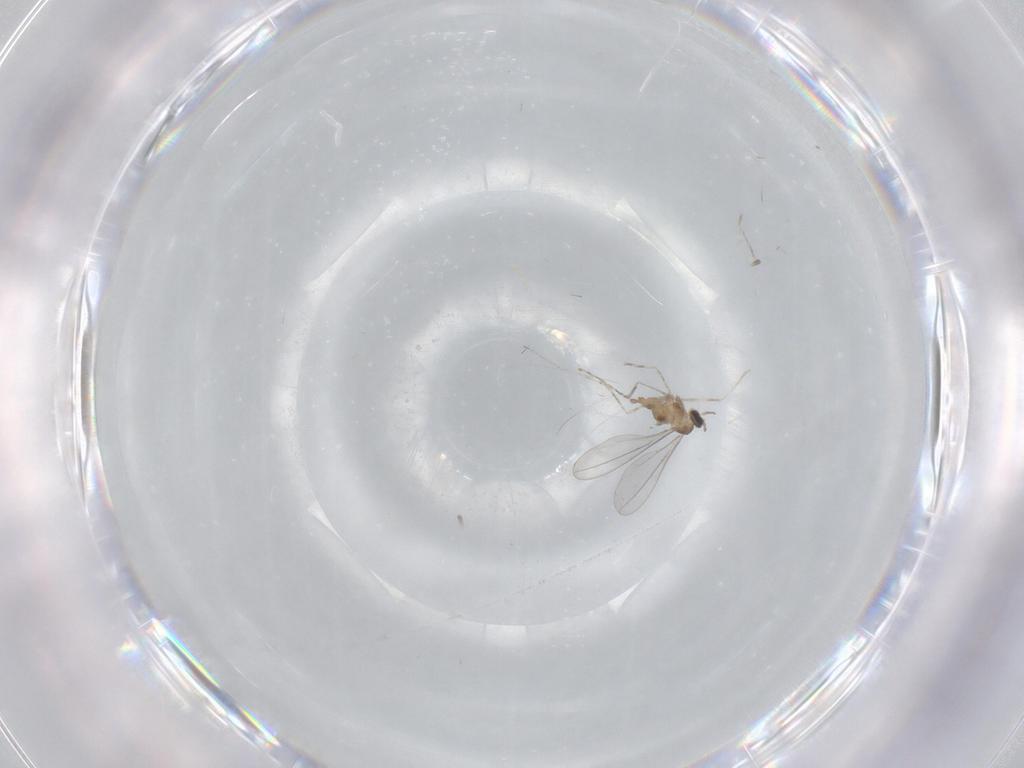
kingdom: Animalia
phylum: Arthropoda
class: Insecta
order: Diptera
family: Cecidomyiidae
